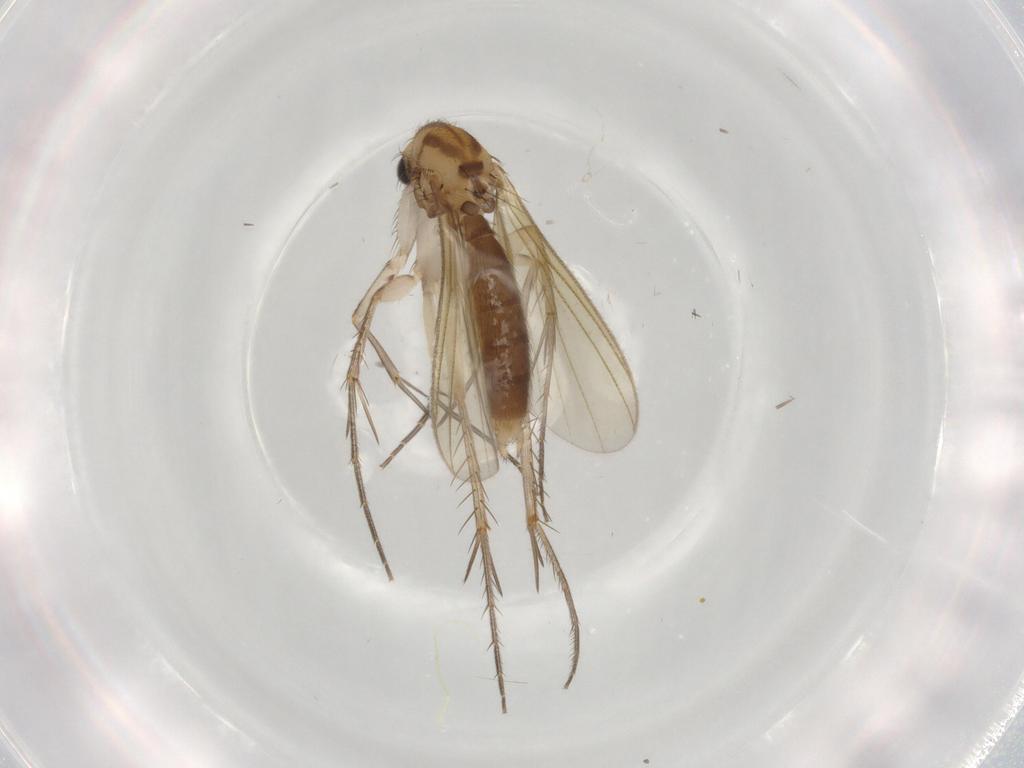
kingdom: Animalia
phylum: Arthropoda
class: Insecta
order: Diptera
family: Mycetophilidae
